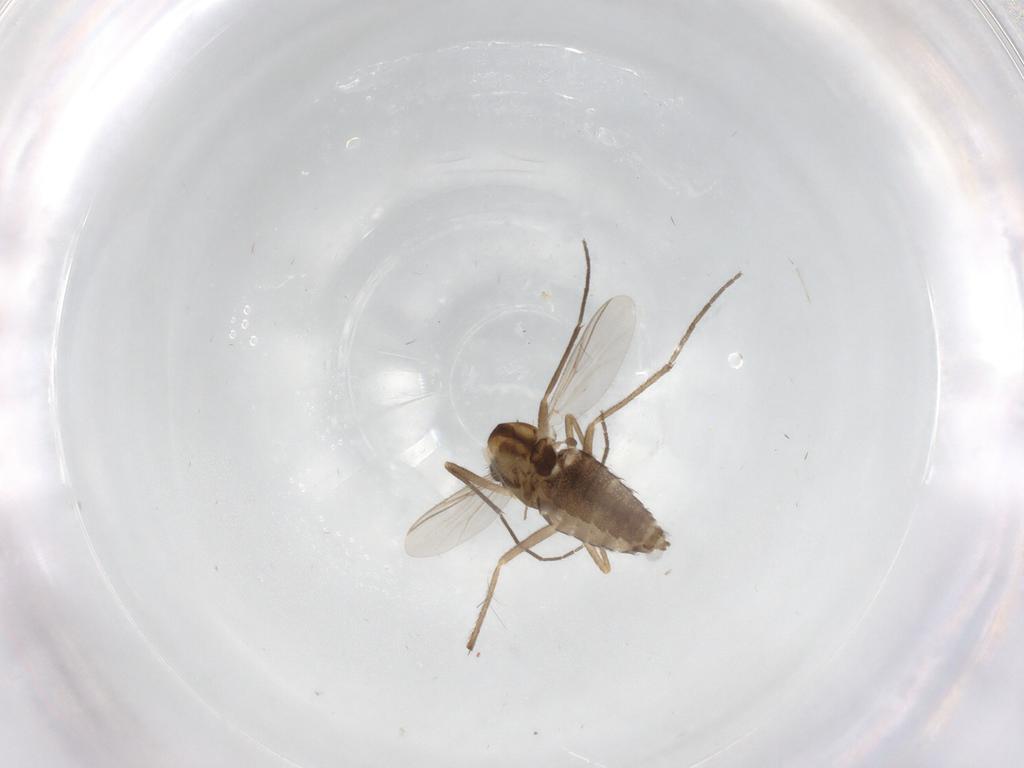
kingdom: Animalia
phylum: Arthropoda
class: Insecta
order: Diptera
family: Chironomidae
